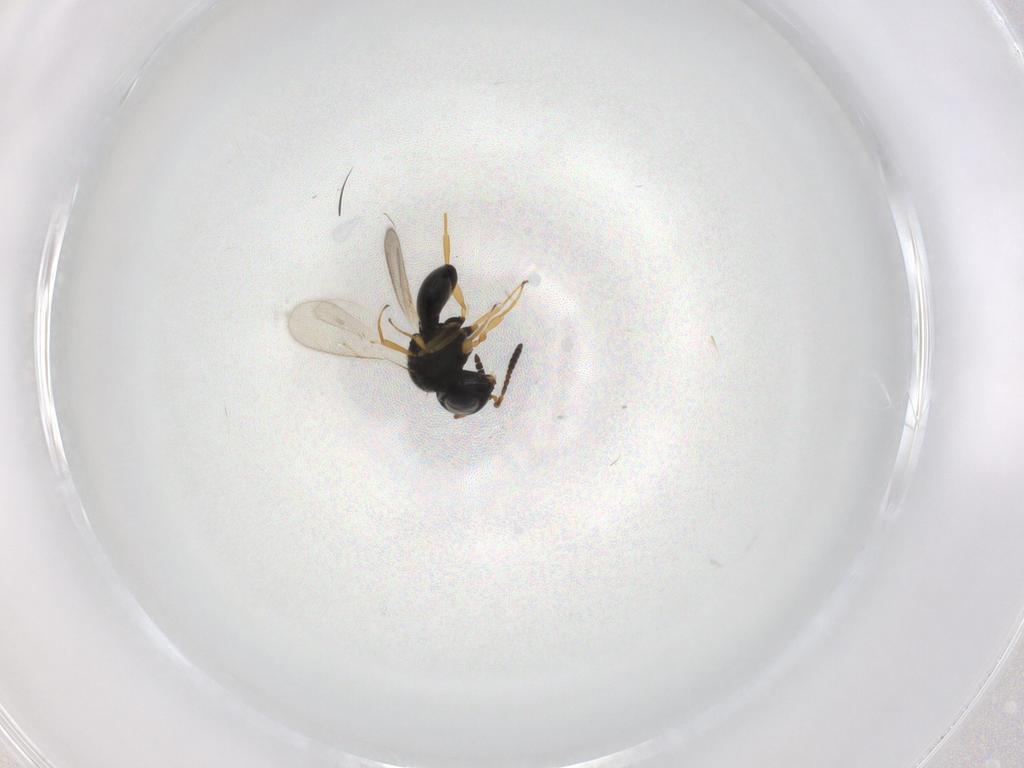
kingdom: Animalia
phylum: Arthropoda
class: Insecta
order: Hymenoptera
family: Scelionidae
